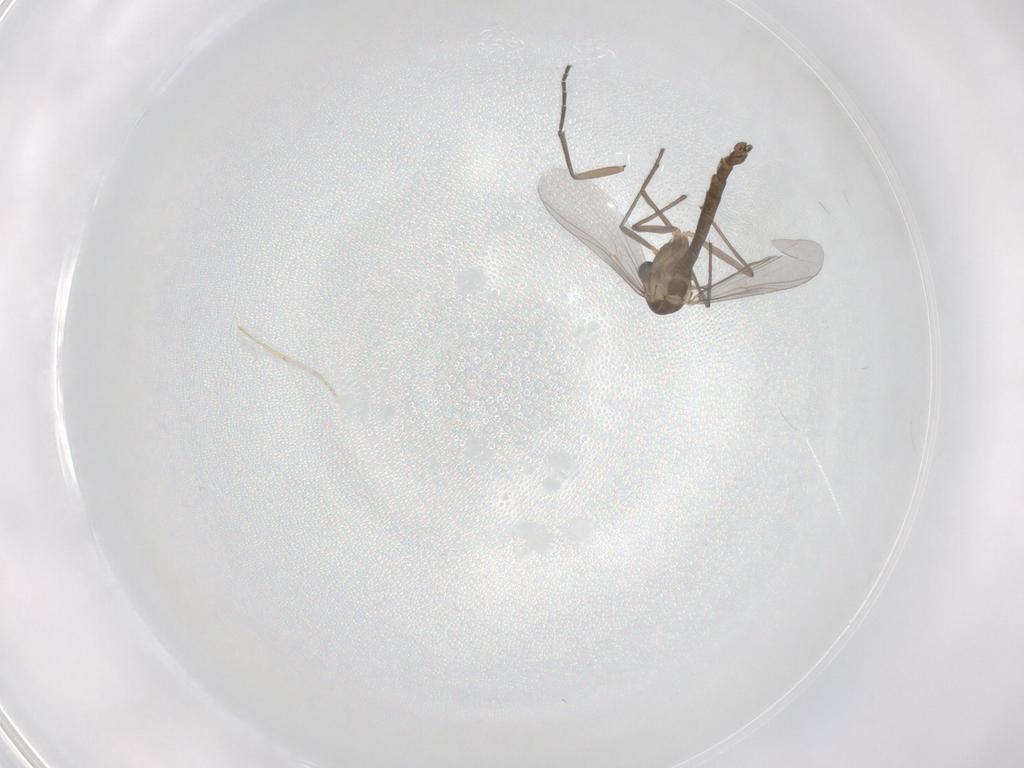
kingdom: Animalia
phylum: Arthropoda
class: Insecta
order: Diptera
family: Chironomidae
